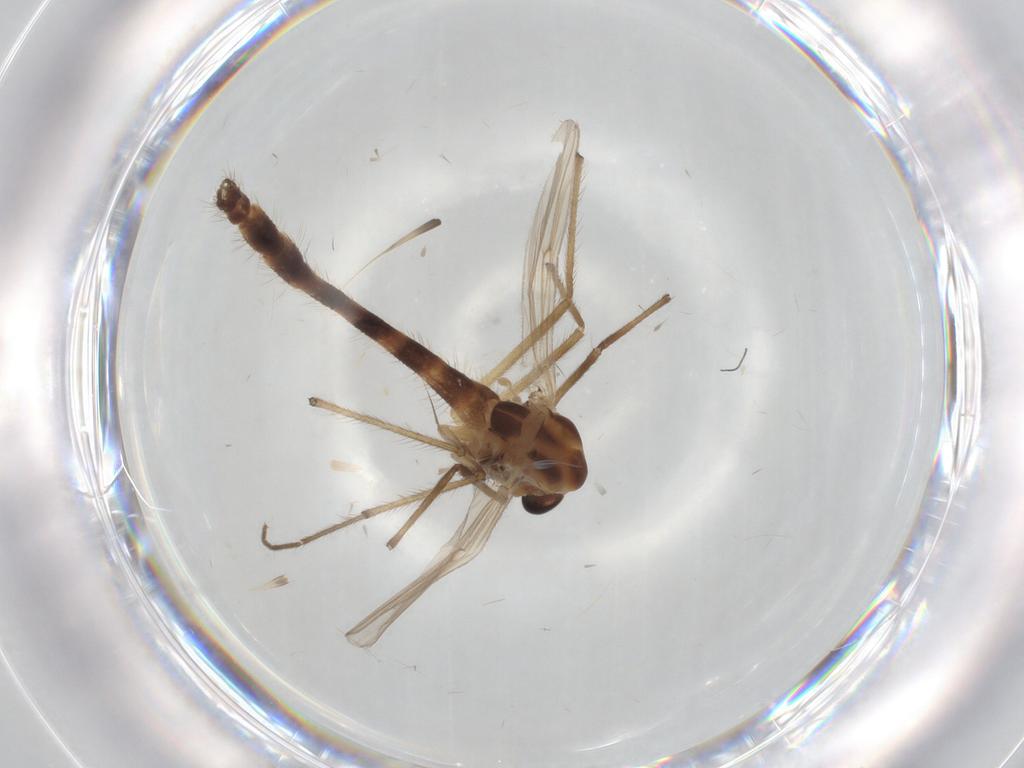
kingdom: Animalia
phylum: Arthropoda
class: Insecta
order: Diptera
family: Chironomidae
